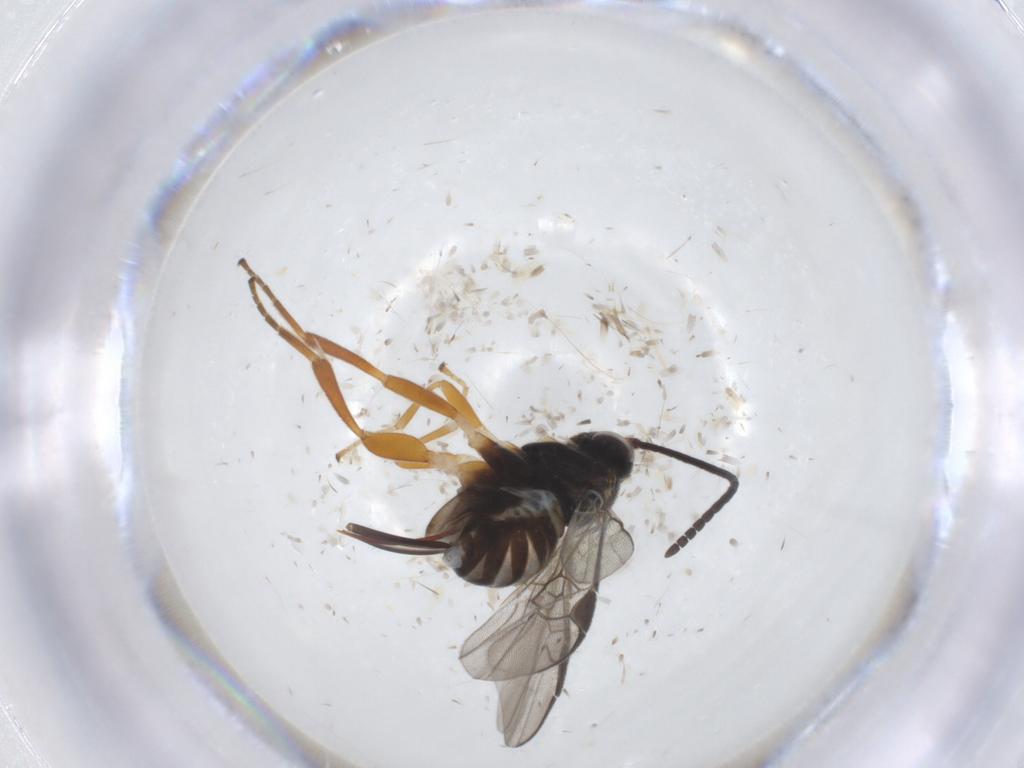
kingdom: Animalia
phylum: Arthropoda
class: Insecta
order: Hymenoptera
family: Braconidae
